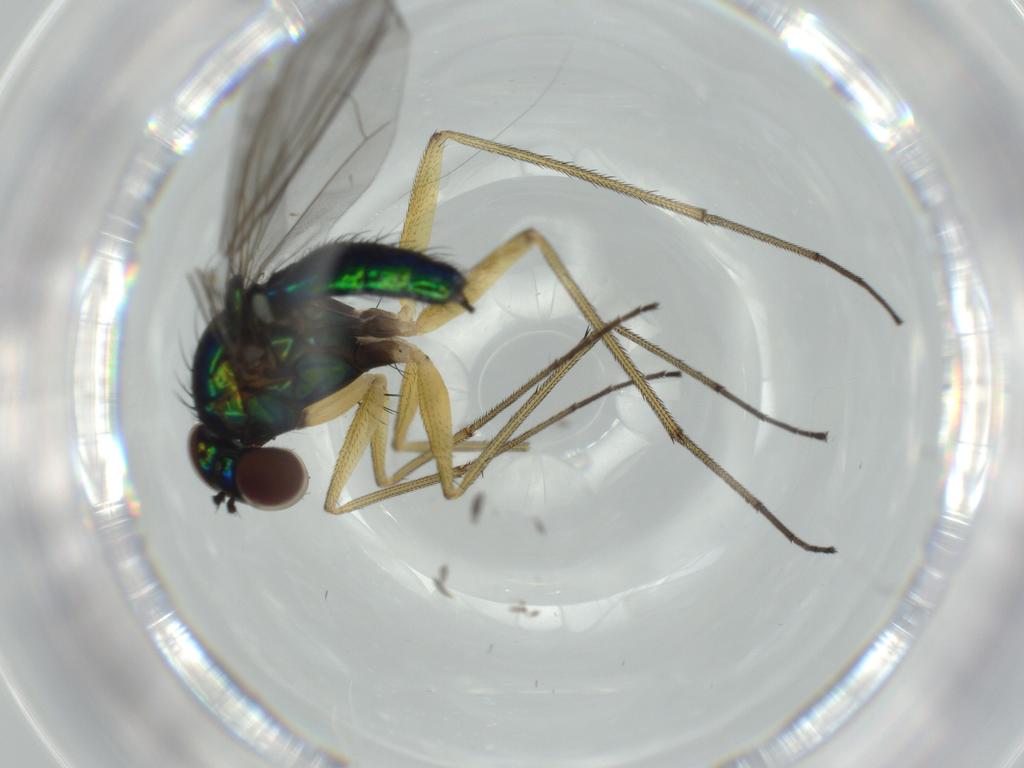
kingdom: Animalia
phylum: Arthropoda
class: Insecta
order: Diptera
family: Dolichopodidae
